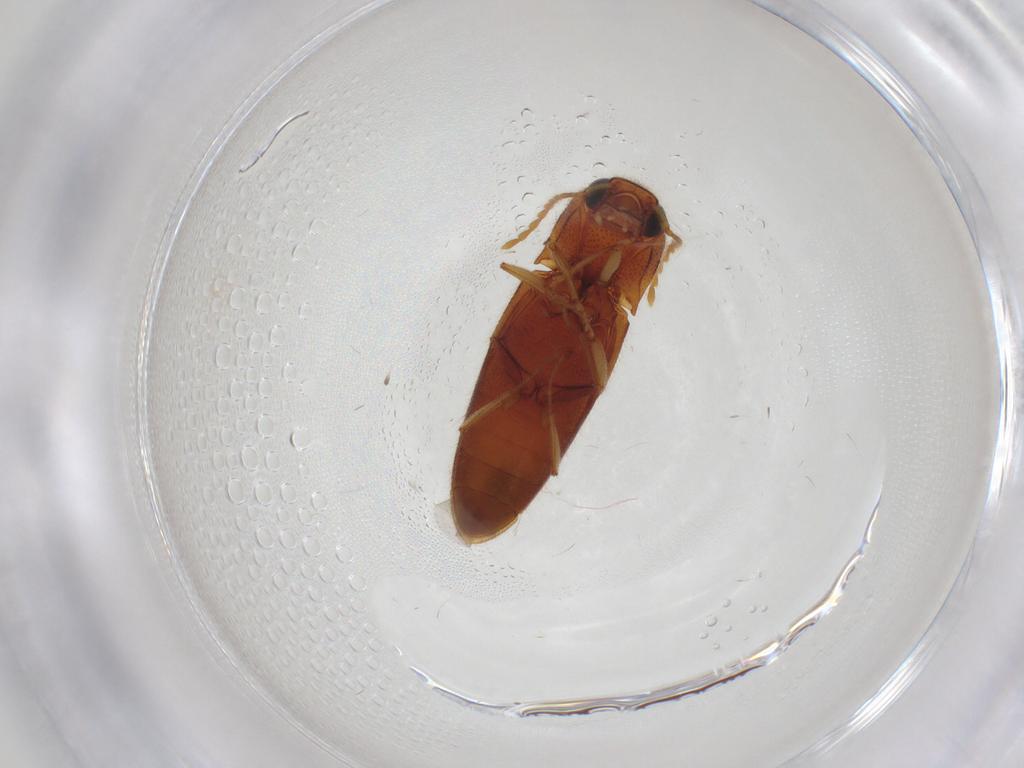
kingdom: Animalia
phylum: Arthropoda
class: Insecta
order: Coleoptera
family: Elateridae
